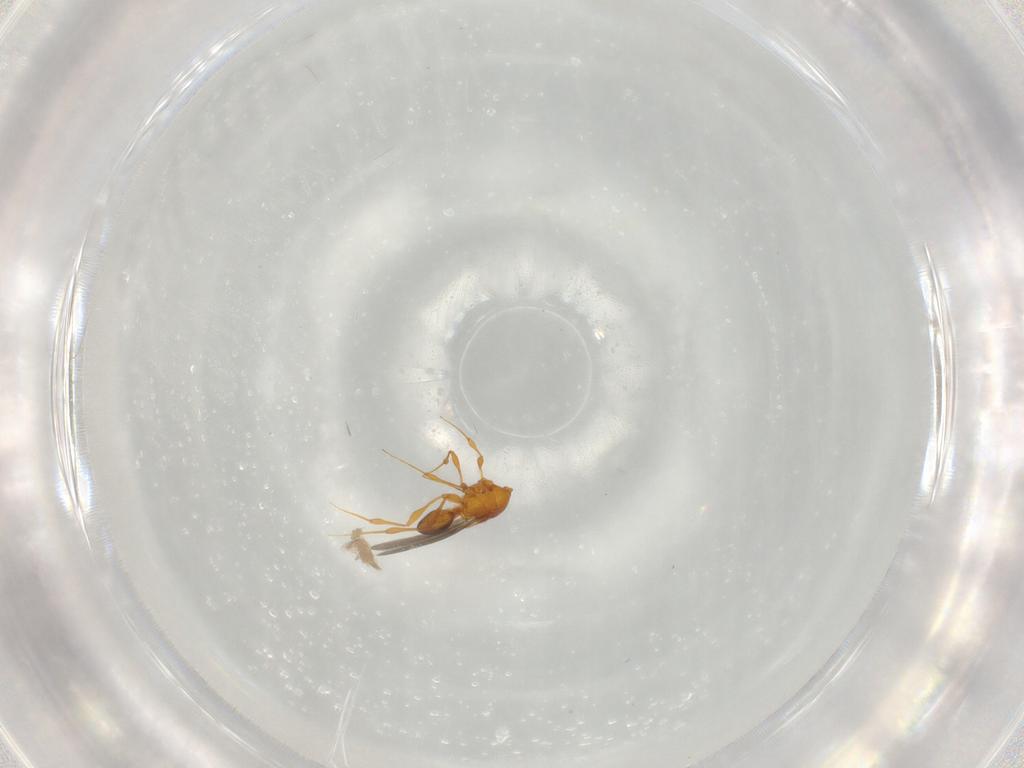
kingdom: Animalia
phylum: Arthropoda
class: Insecta
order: Hymenoptera
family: Platygastridae
